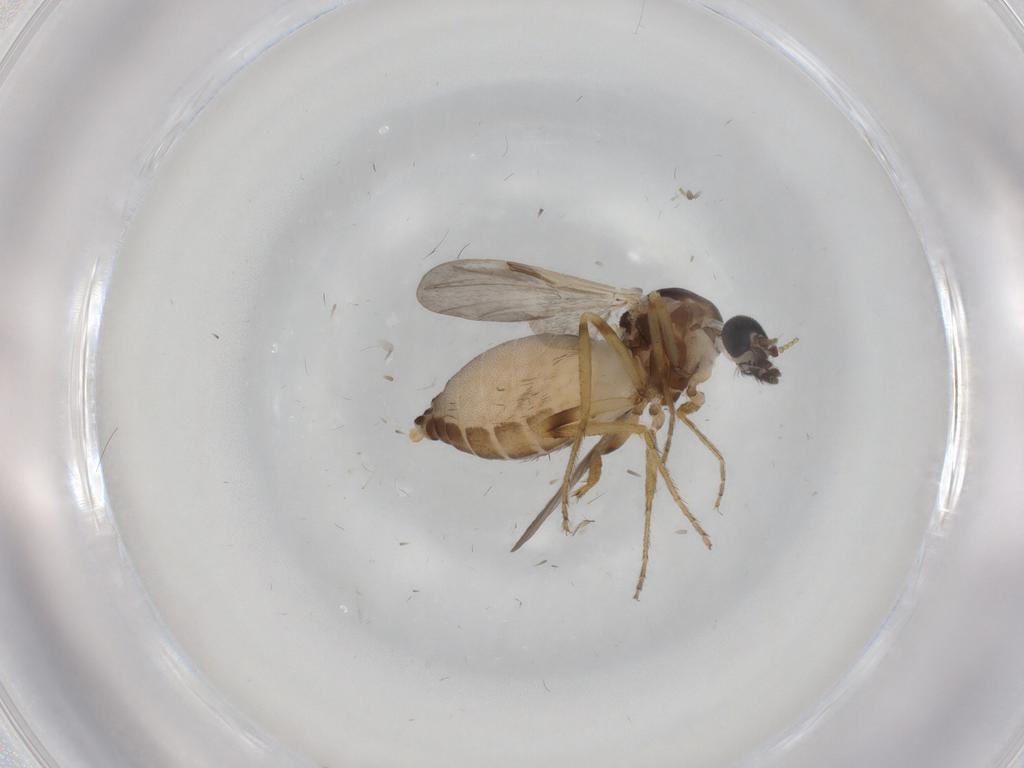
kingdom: Animalia
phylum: Arthropoda
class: Insecta
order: Diptera
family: Ceratopogonidae
